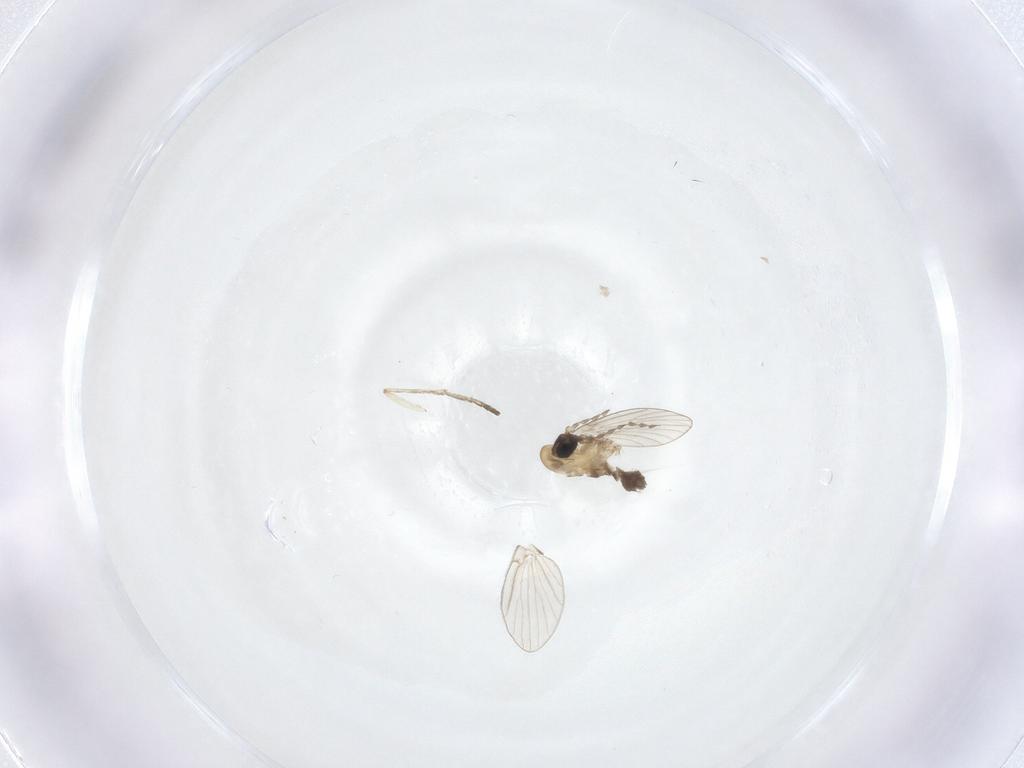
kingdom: Animalia
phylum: Arthropoda
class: Insecta
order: Diptera
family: Psychodidae
